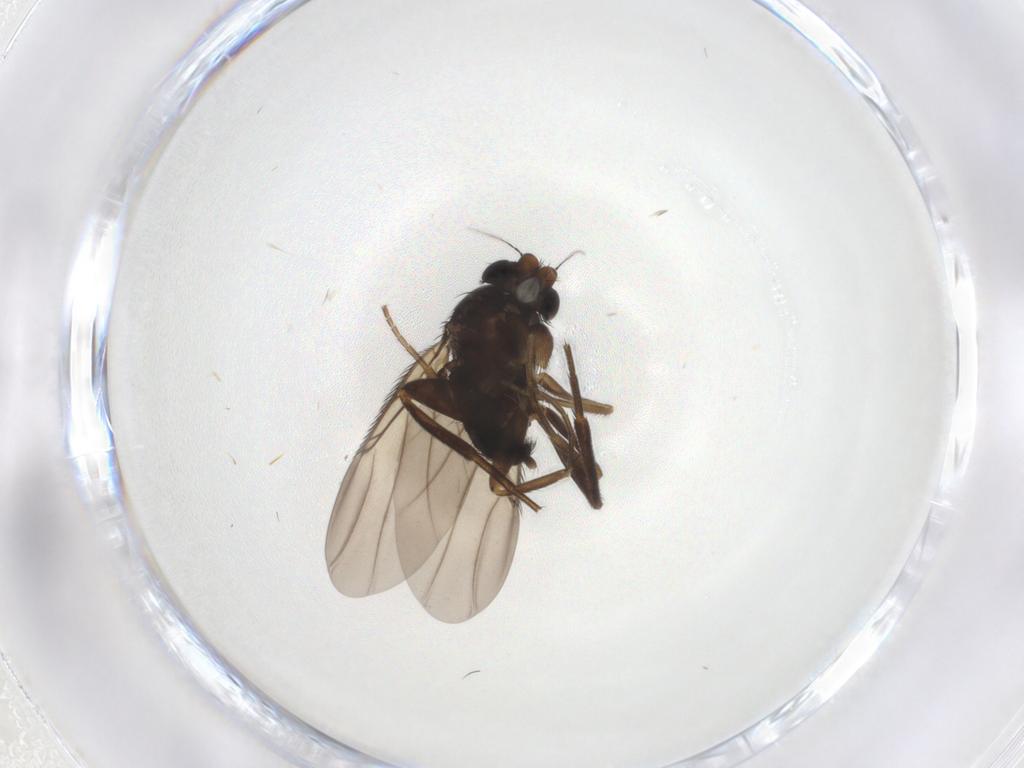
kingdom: Animalia
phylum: Arthropoda
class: Insecta
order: Diptera
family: Phoridae
